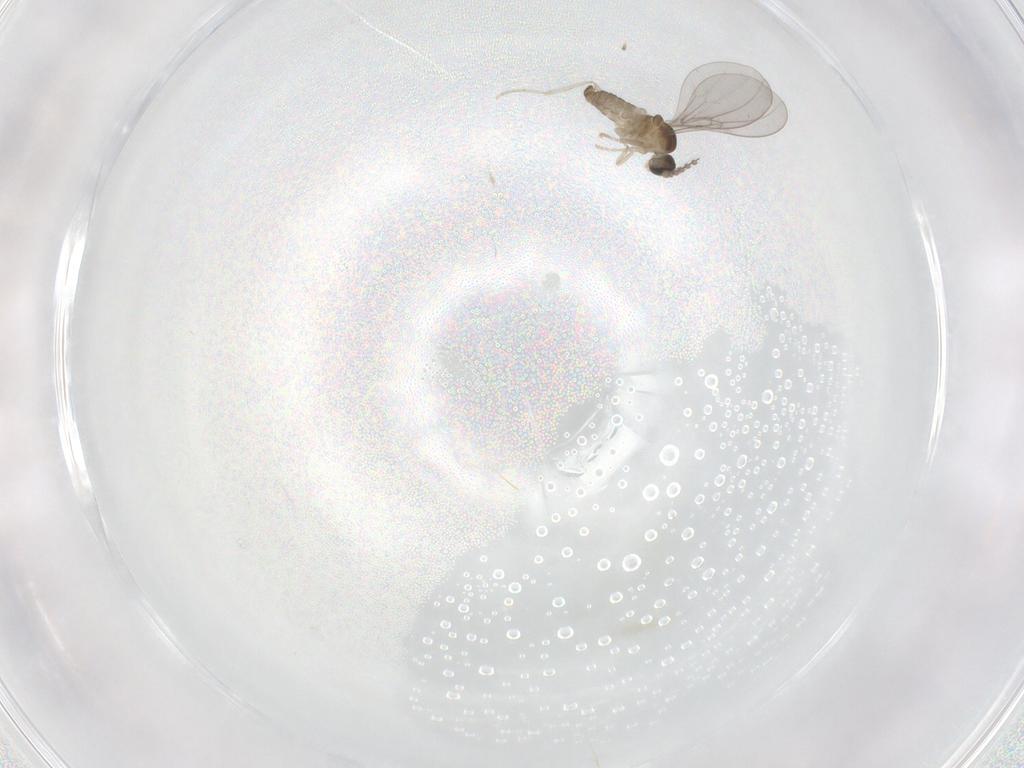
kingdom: Animalia
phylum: Arthropoda
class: Insecta
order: Diptera
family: Cecidomyiidae
